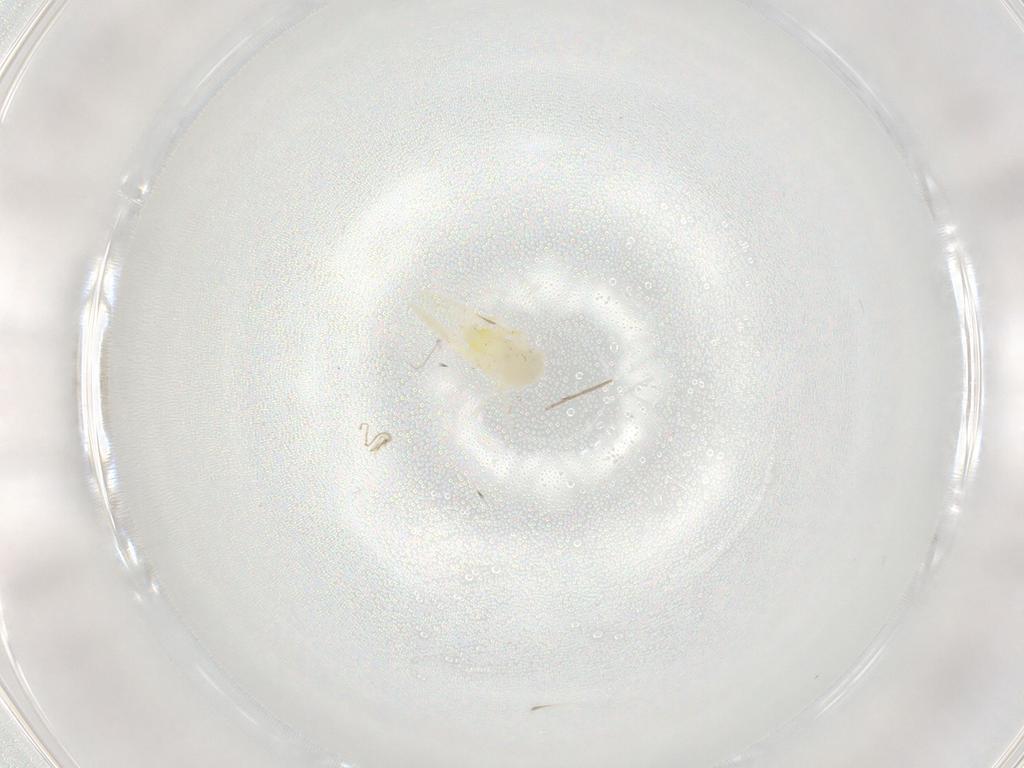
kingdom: Animalia
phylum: Arthropoda
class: Insecta
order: Hemiptera
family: Aleyrodidae
